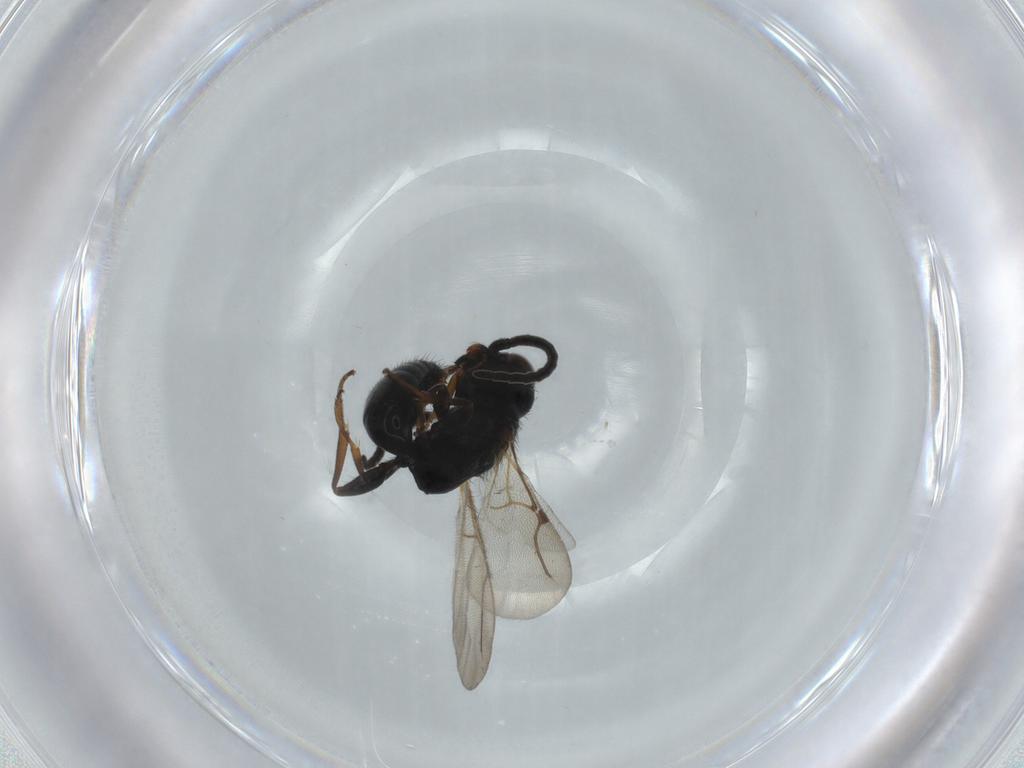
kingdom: Animalia
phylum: Arthropoda
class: Insecta
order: Hymenoptera
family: Bethylidae
